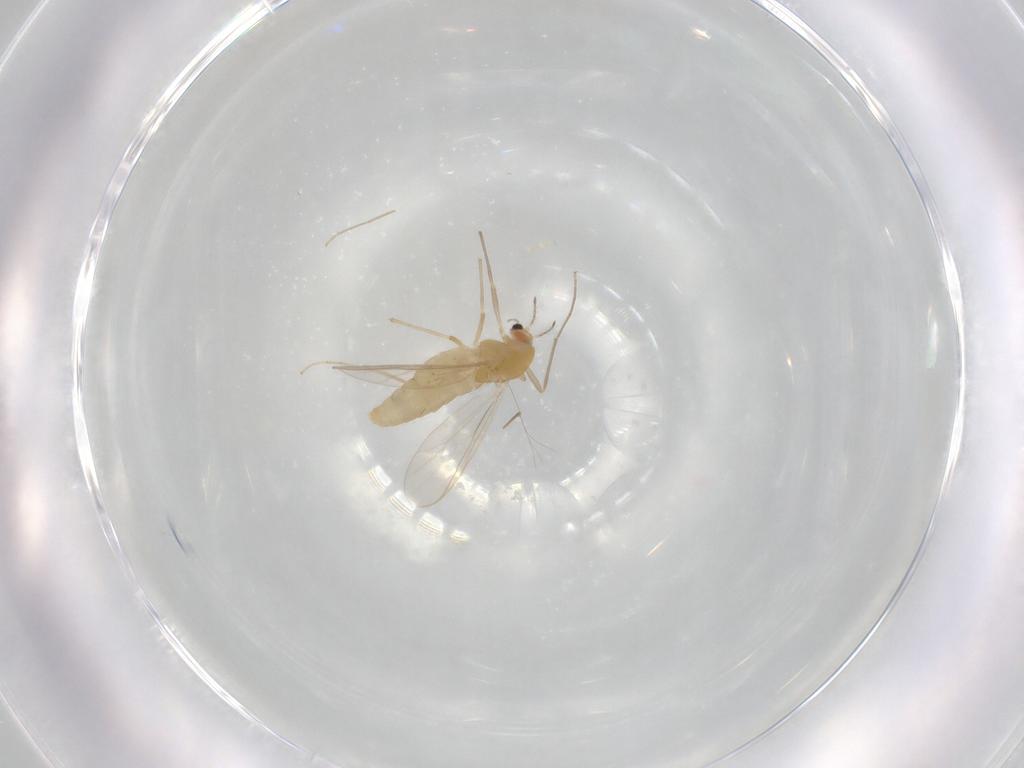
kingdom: Animalia
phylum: Arthropoda
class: Insecta
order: Diptera
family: Chironomidae
